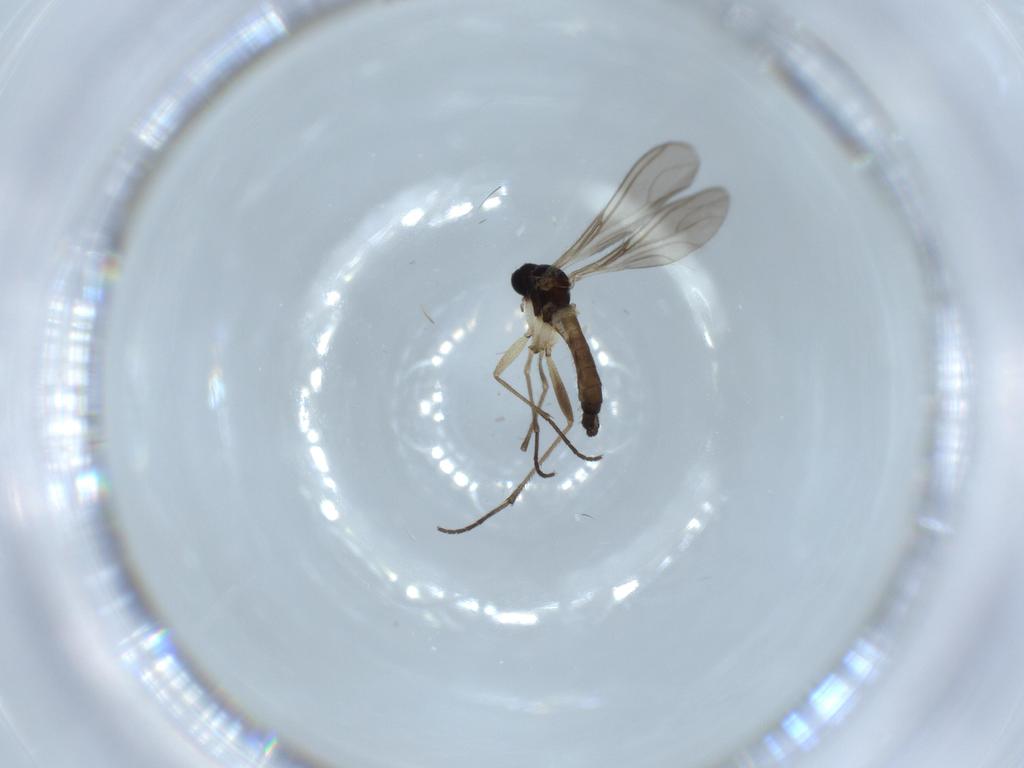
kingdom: Animalia
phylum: Arthropoda
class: Insecta
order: Diptera
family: Sciaridae
